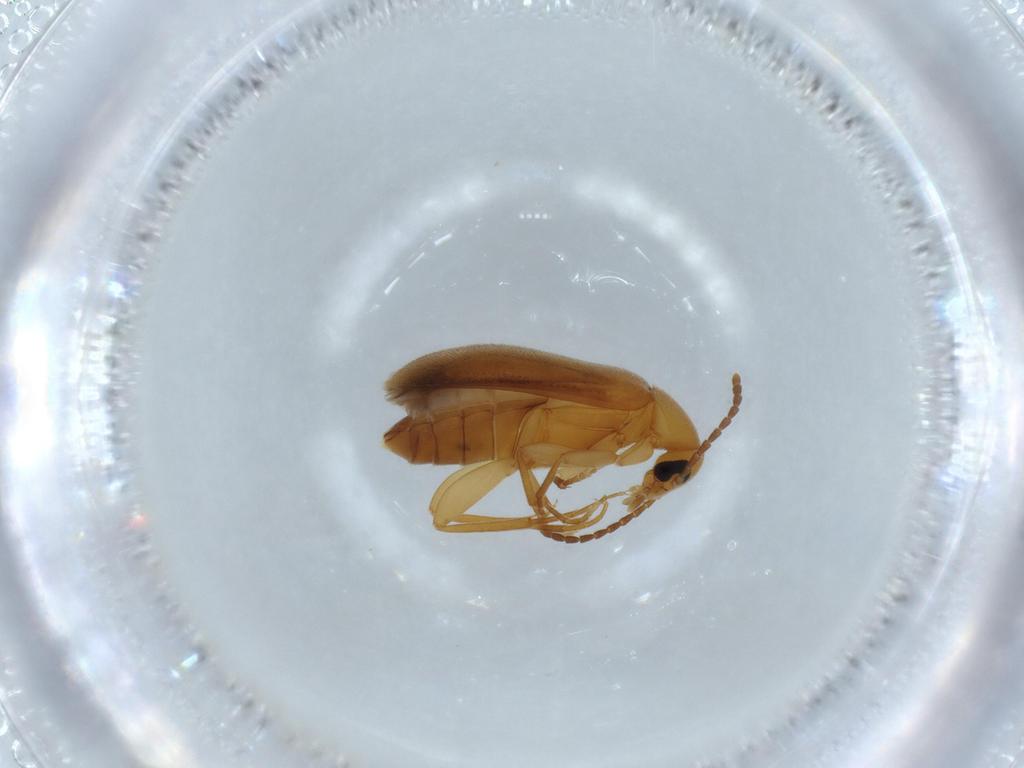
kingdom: Animalia
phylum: Arthropoda
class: Insecta
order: Coleoptera
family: Scraptiidae
